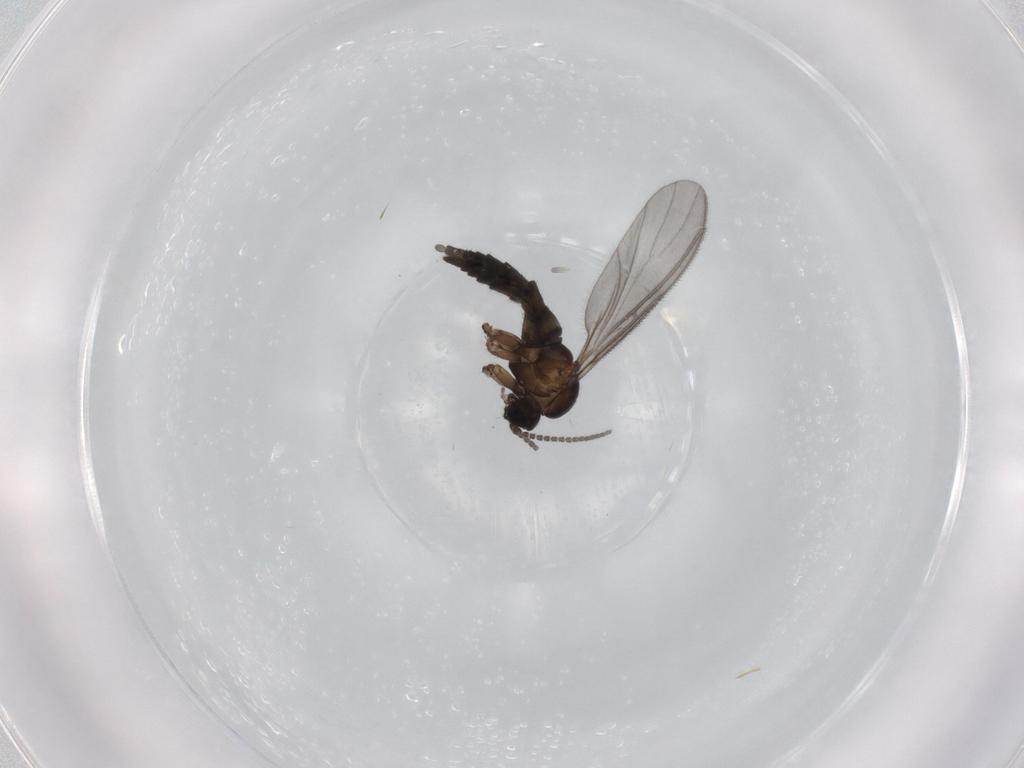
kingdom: Animalia
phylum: Arthropoda
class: Insecta
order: Diptera
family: Sciaridae
